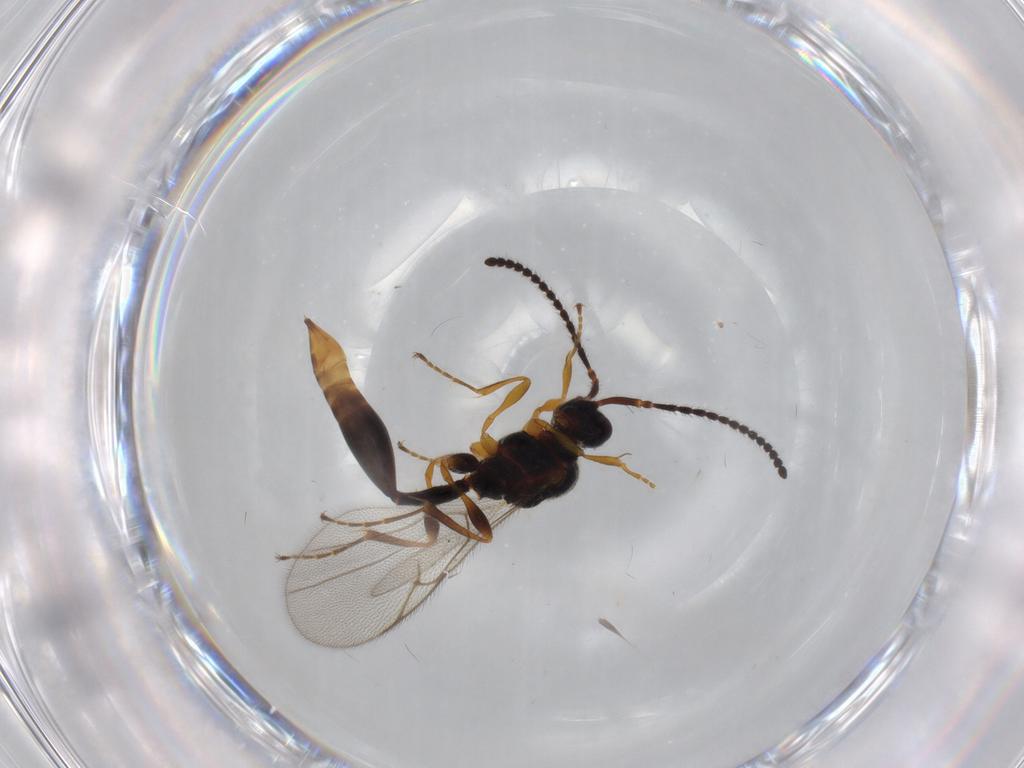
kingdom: Animalia
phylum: Arthropoda
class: Insecta
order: Hymenoptera
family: Diapriidae
